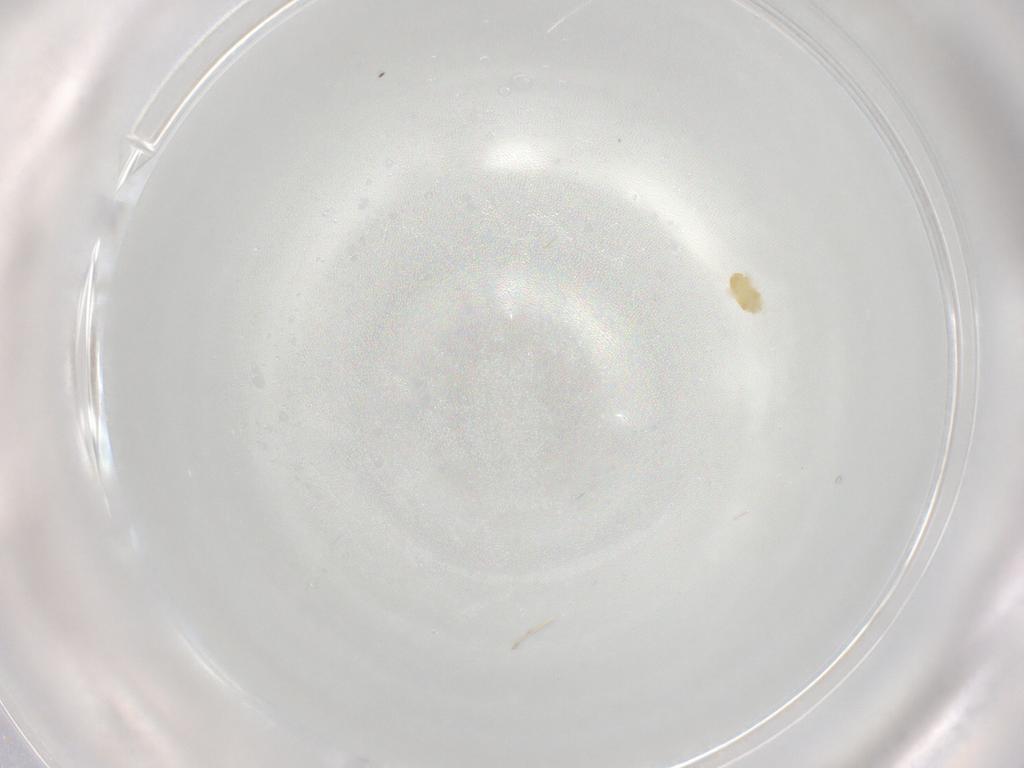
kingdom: Animalia
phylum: Arthropoda
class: Arachnida
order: Trombidiformes
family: Eupodidae
